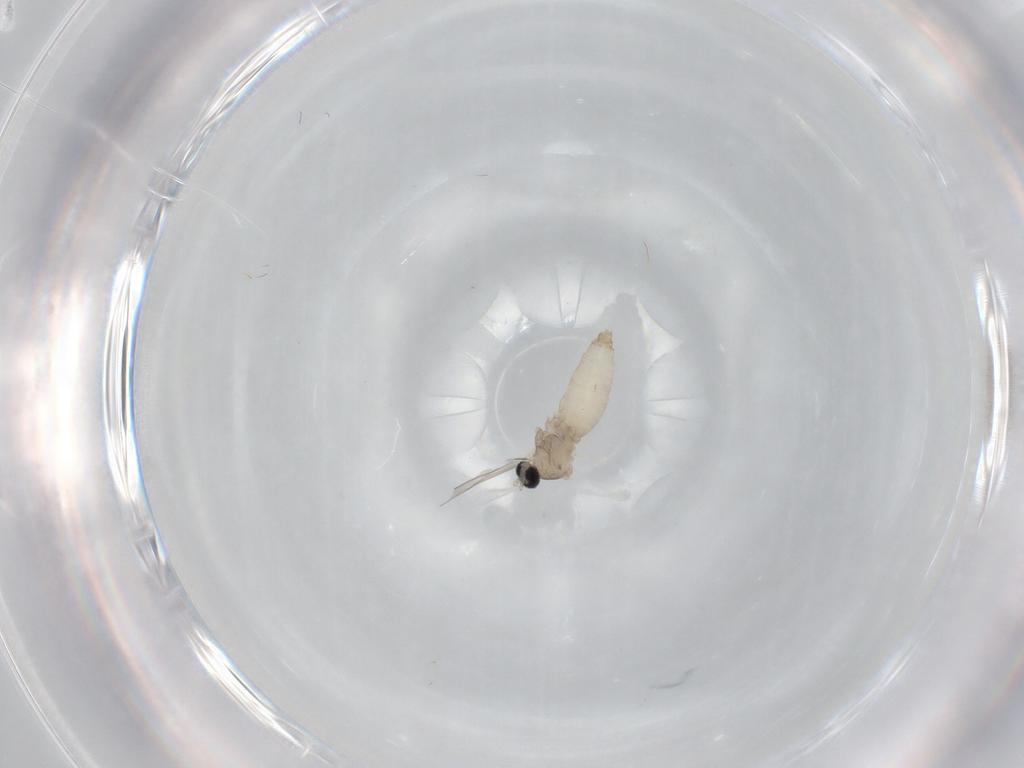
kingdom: Animalia
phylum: Arthropoda
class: Insecta
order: Diptera
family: Cecidomyiidae
